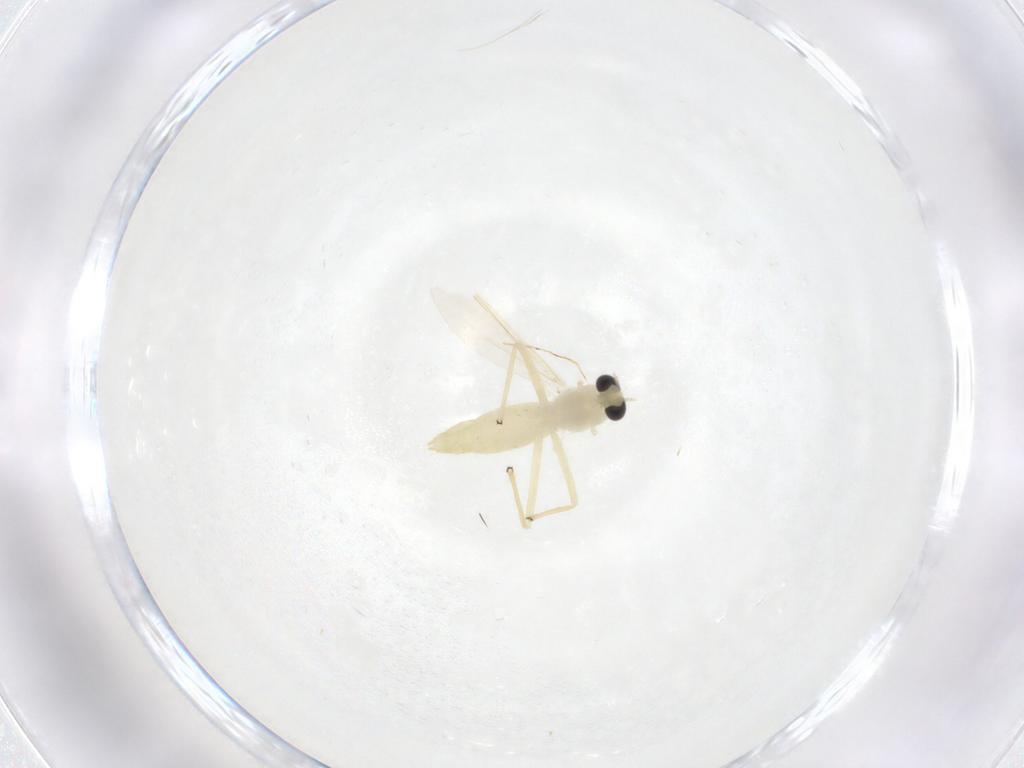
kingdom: Animalia
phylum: Arthropoda
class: Insecta
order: Diptera
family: Chironomidae
